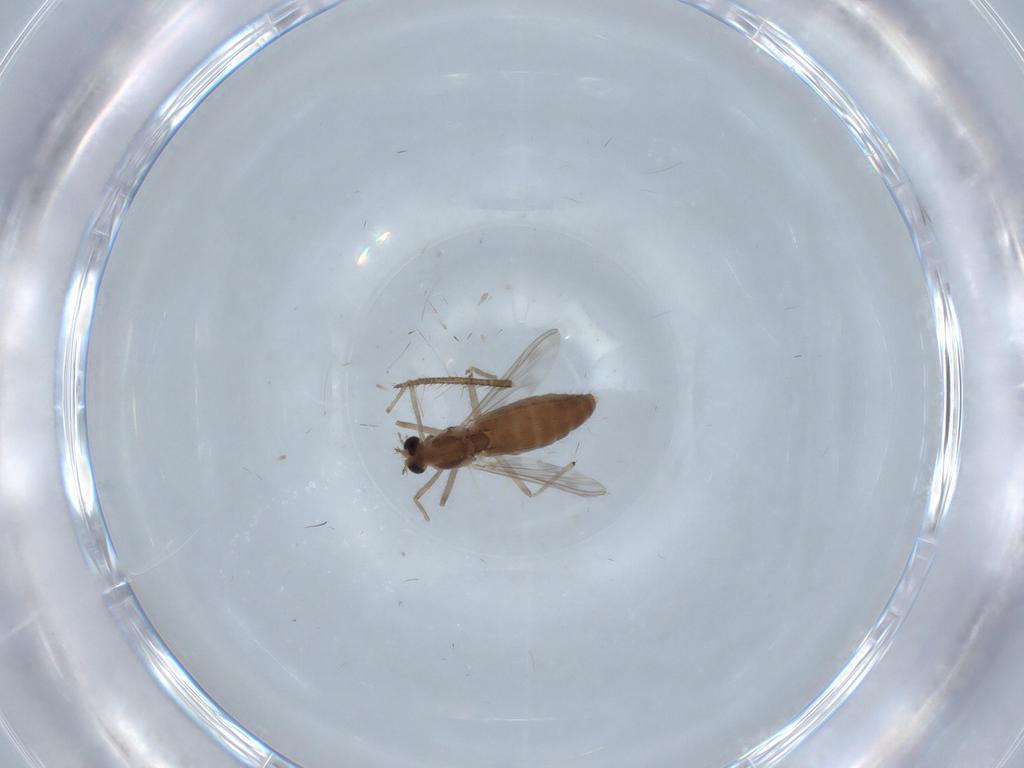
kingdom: Animalia
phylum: Arthropoda
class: Insecta
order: Diptera
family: Chironomidae
